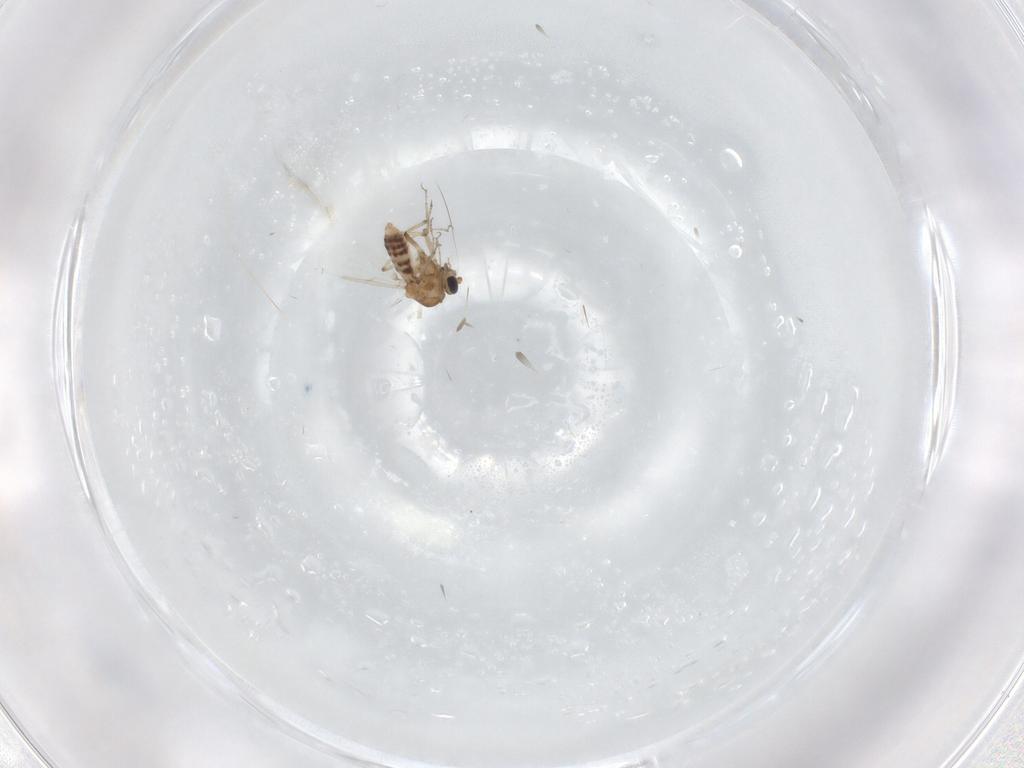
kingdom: Animalia
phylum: Arthropoda
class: Insecta
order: Diptera
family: Ceratopogonidae
